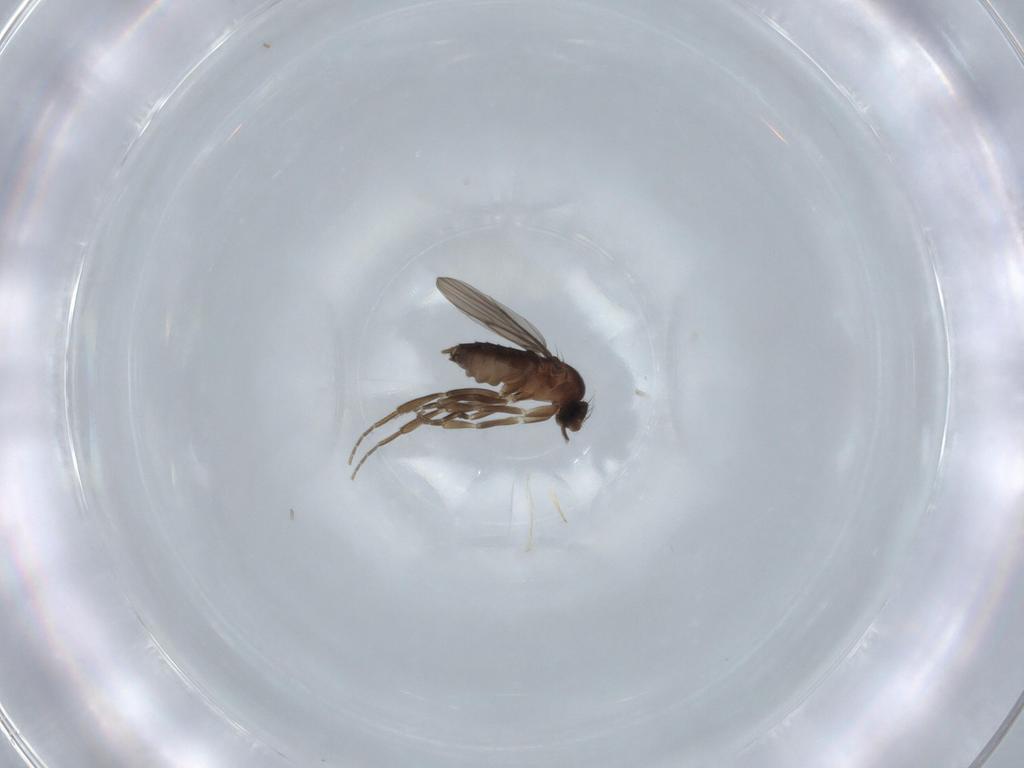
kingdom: Animalia
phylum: Arthropoda
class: Insecta
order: Diptera
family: Phoridae
